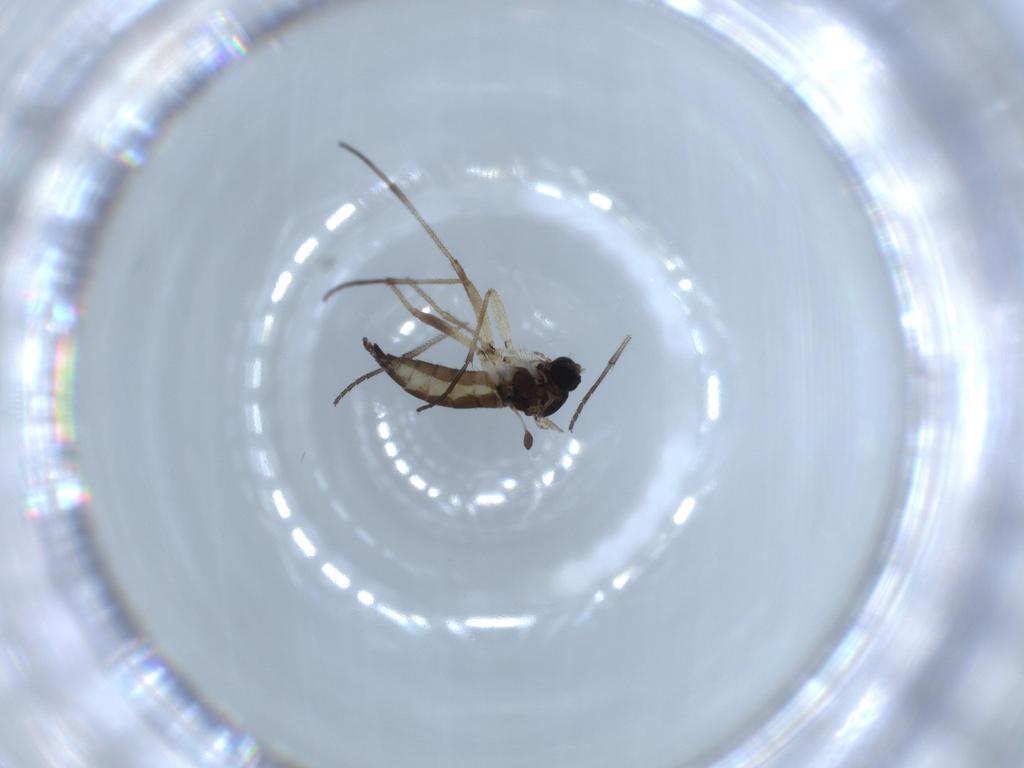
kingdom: Animalia
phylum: Arthropoda
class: Insecta
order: Diptera
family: Sciaridae
